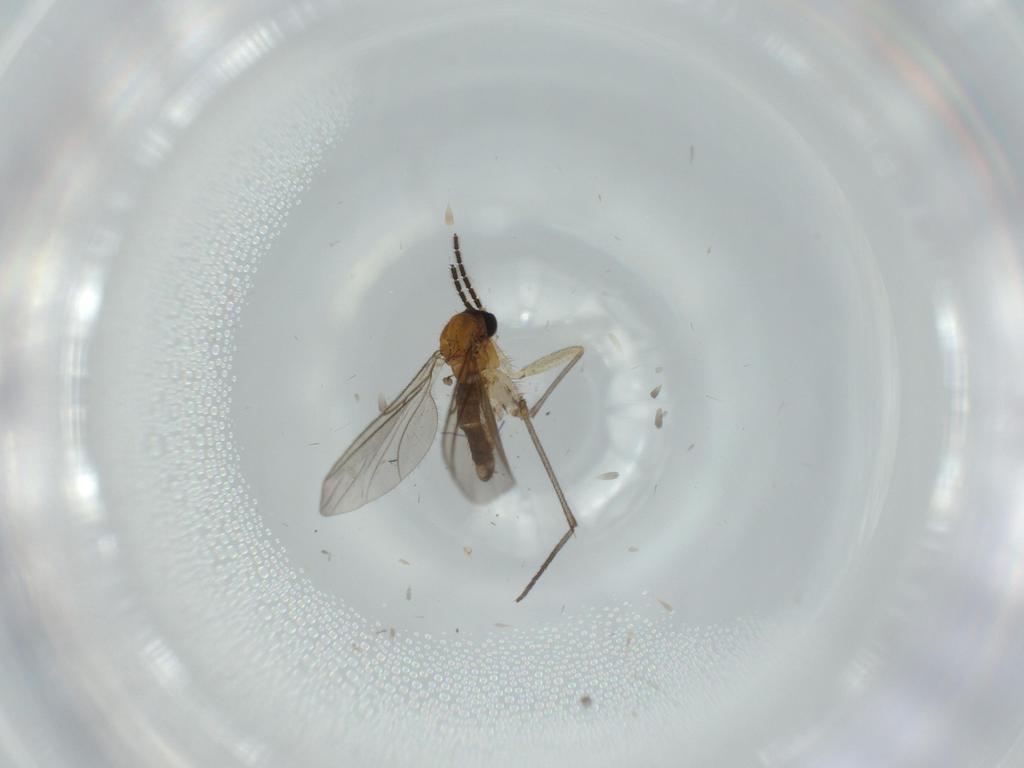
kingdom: Animalia
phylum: Arthropoda
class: Insecta
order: Diptera
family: Sciaridae
